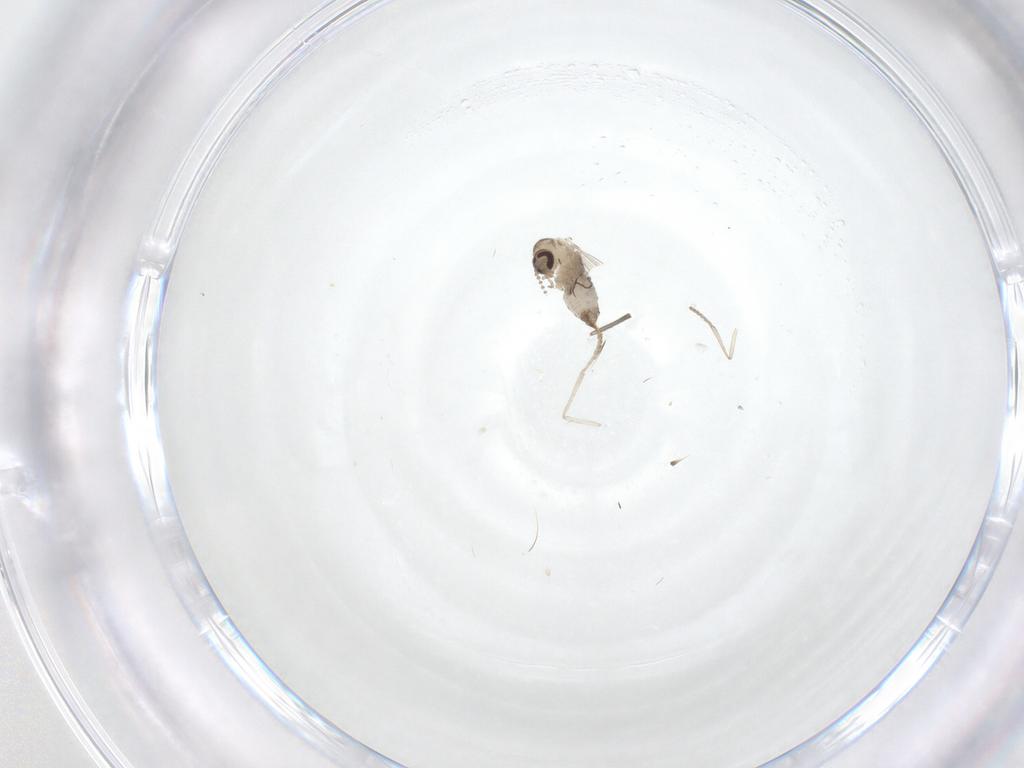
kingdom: Animalia
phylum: Arthropoda
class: Insecta
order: Diptera
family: Psychodidae
